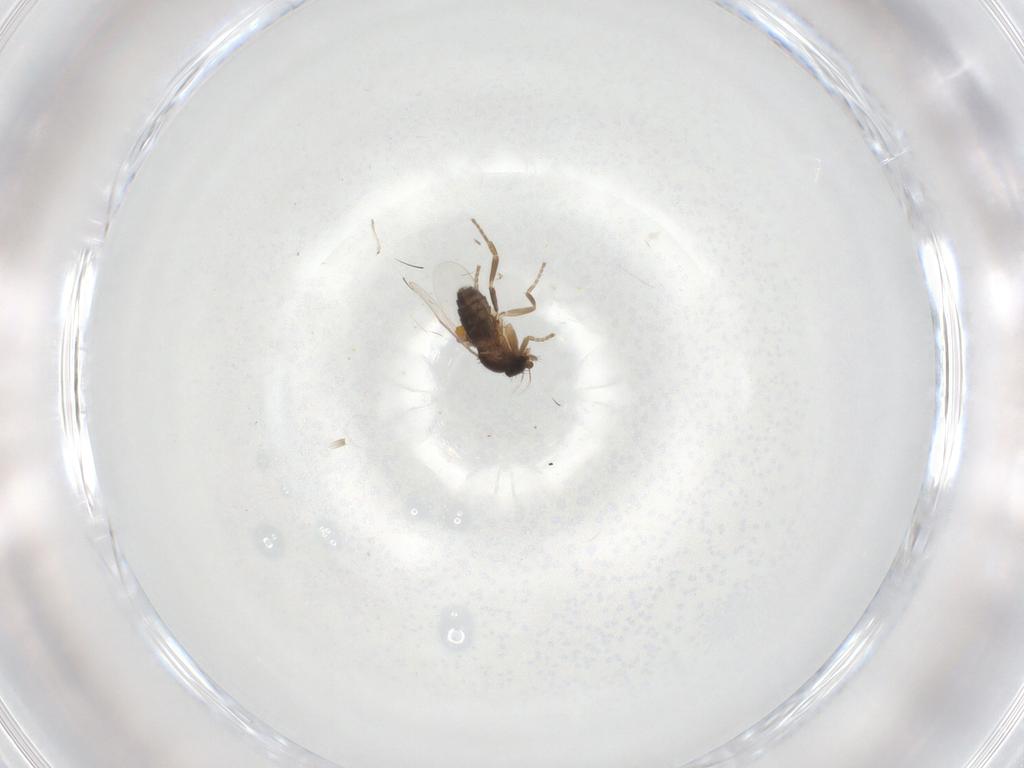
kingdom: Animalia
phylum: Arthropoda
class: Insecta
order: Diptera
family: Phoridae
